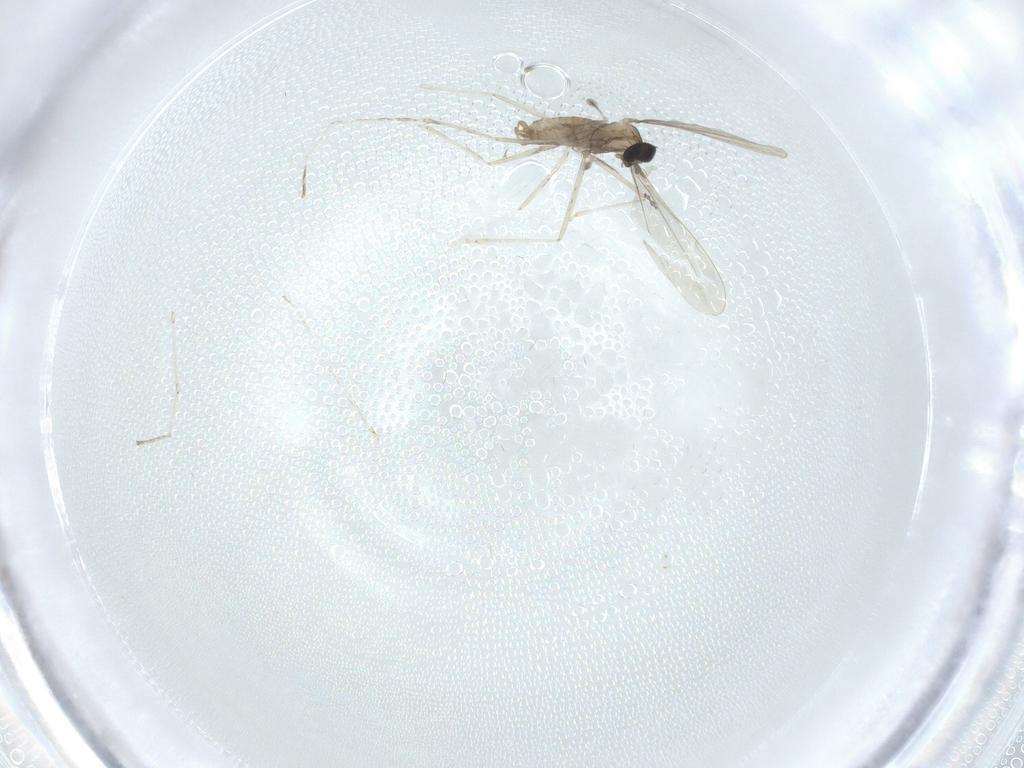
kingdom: Animalia
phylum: Arthropoda
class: Insecta
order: Diptera
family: Cecidomyiidae
